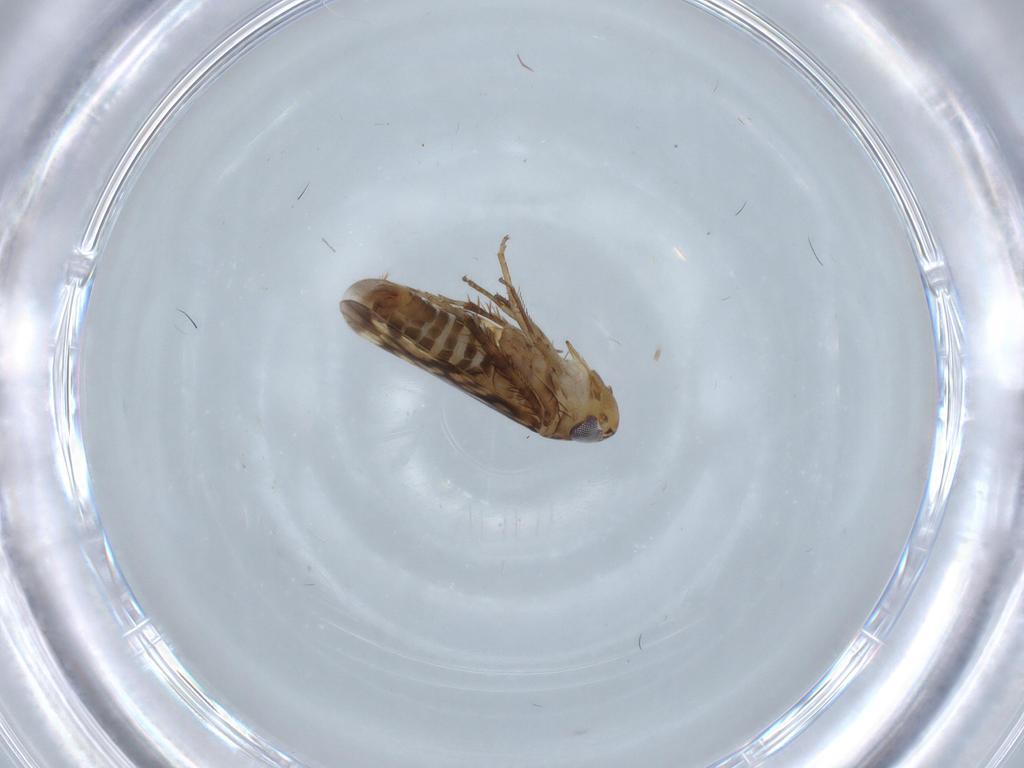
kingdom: Animalia
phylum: Arthropoda
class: Insecta
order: Hemiptera
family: Cicadellidae
